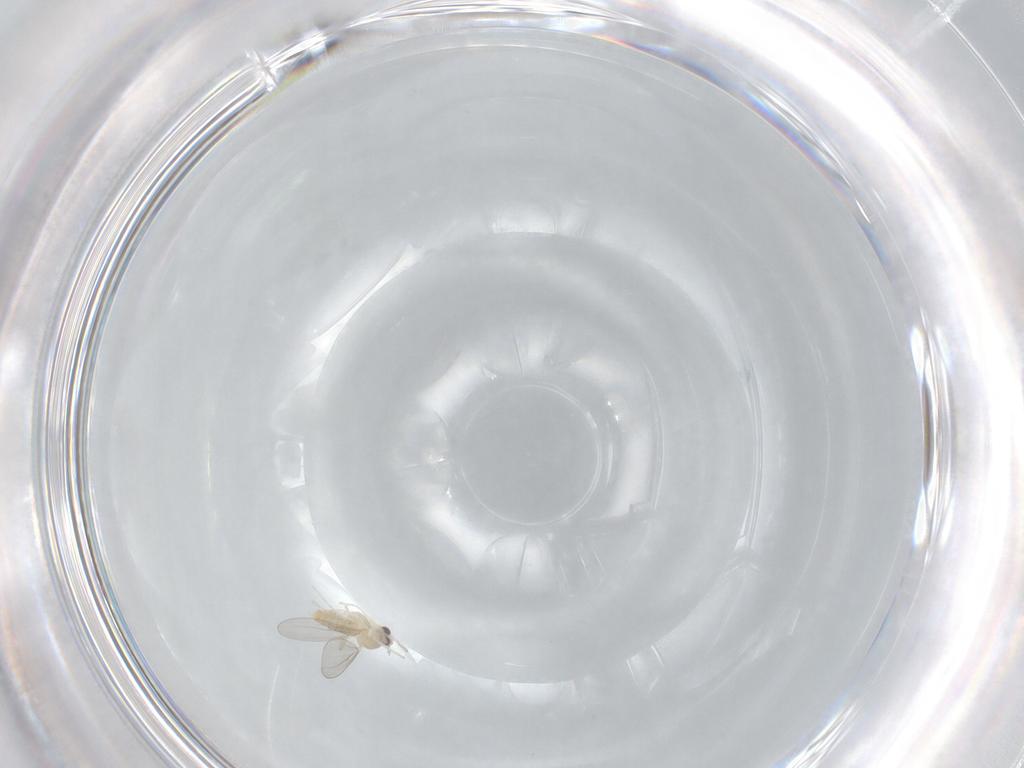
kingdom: Animalia
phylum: Arthropoda
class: Insecta
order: Diptera
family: Cecidomyiidae
